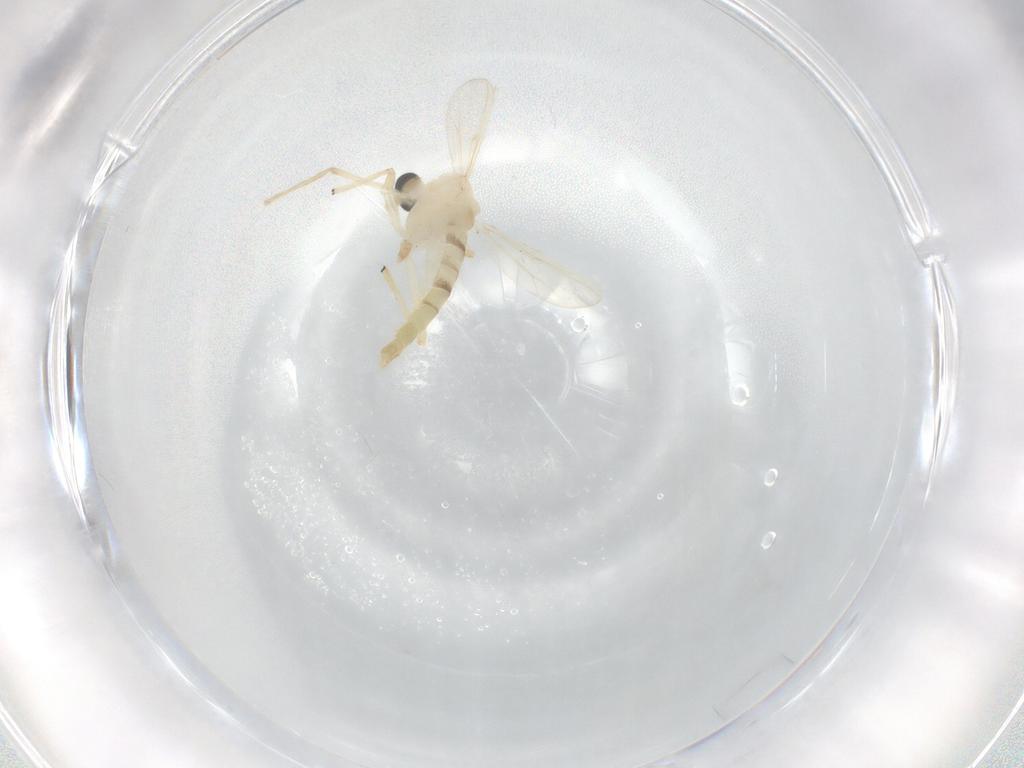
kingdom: Animalia
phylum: Arthropoda
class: Insecta
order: Diptera
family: Chironomidae
